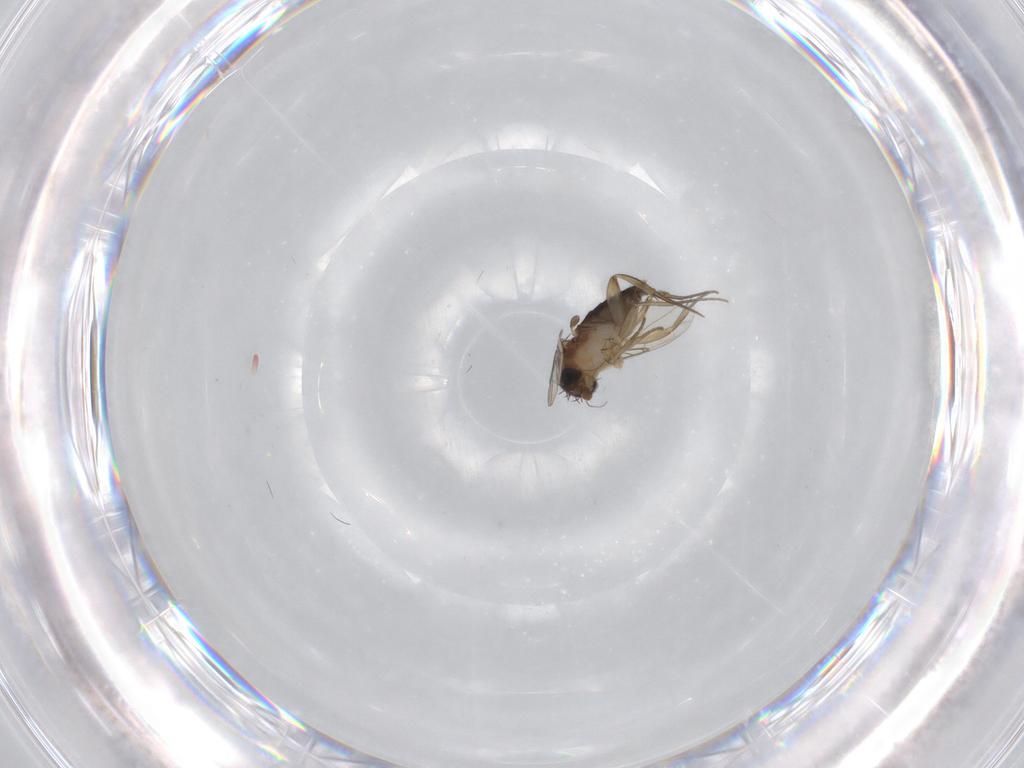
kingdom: Animalia
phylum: Arthropoda
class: Insecta
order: Diptera
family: Phoridae
